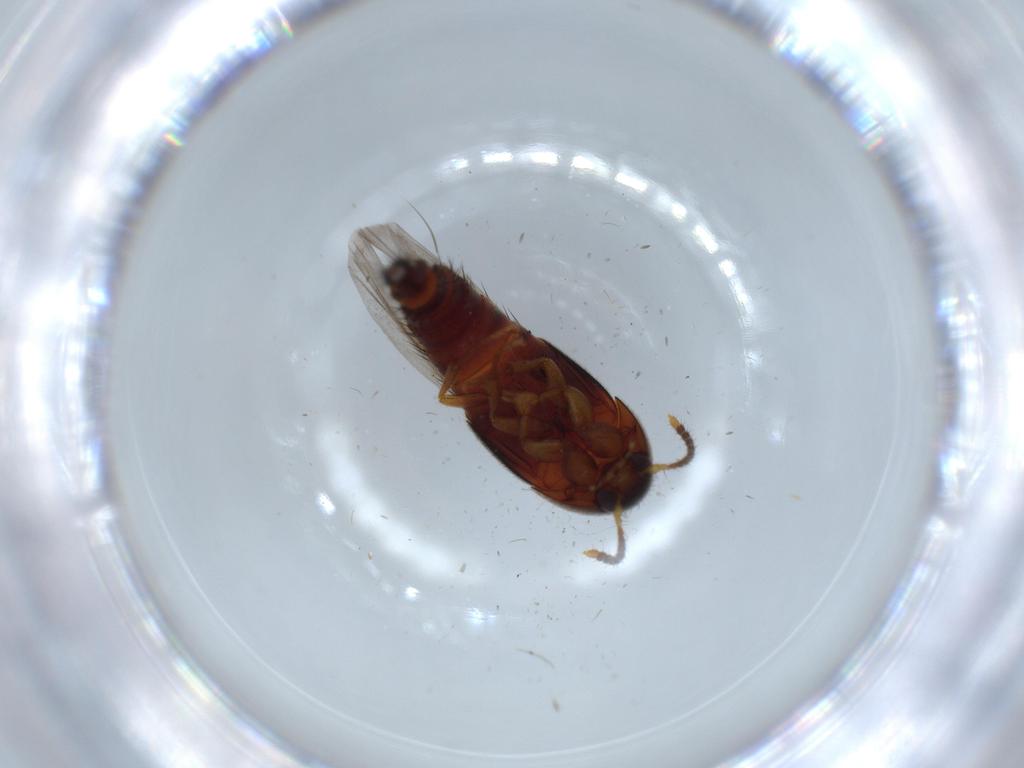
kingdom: Animalia
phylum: Arthropoda
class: Insecta
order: Coleoptera
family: Staphylinidae
